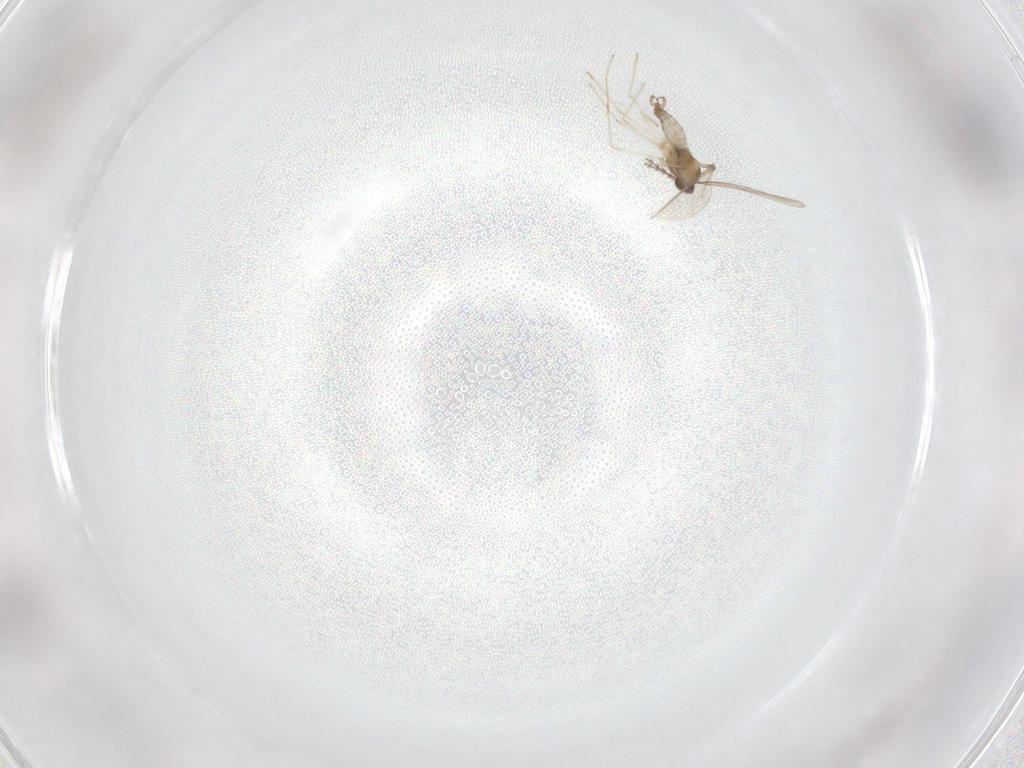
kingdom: Animalia
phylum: Arthropoda
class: Insecta
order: Diptera
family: Cecidomyiidae
